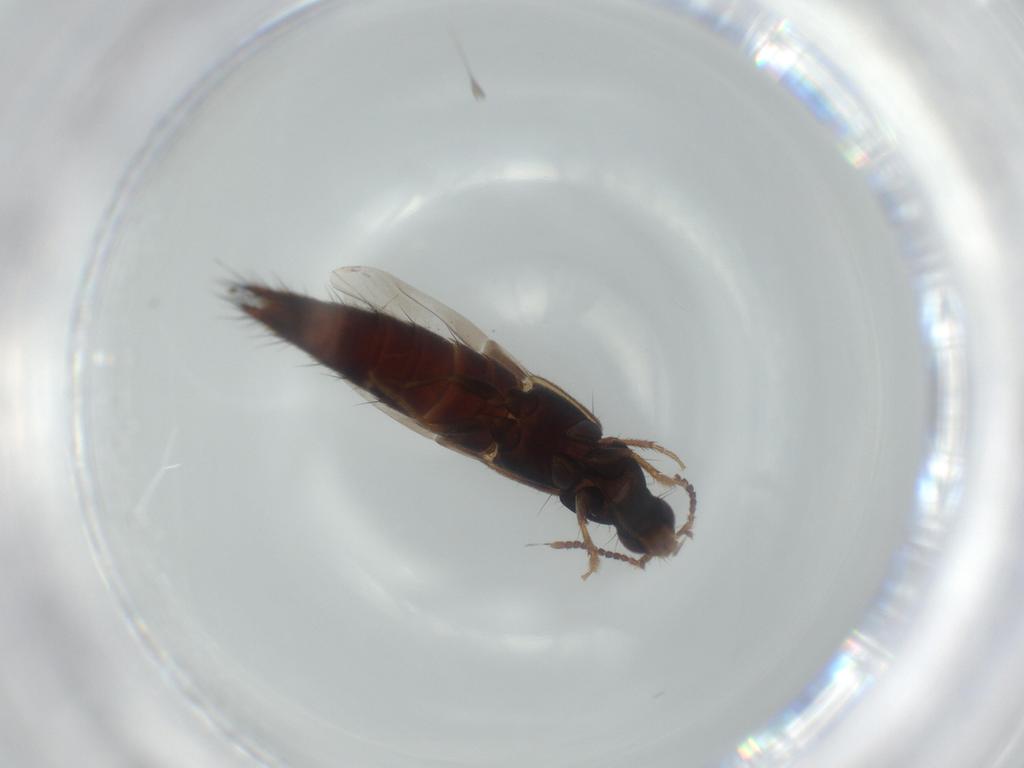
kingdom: Animalia
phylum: Arthropoda
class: Insecta
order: Coleoptera
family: Staphylinidae
